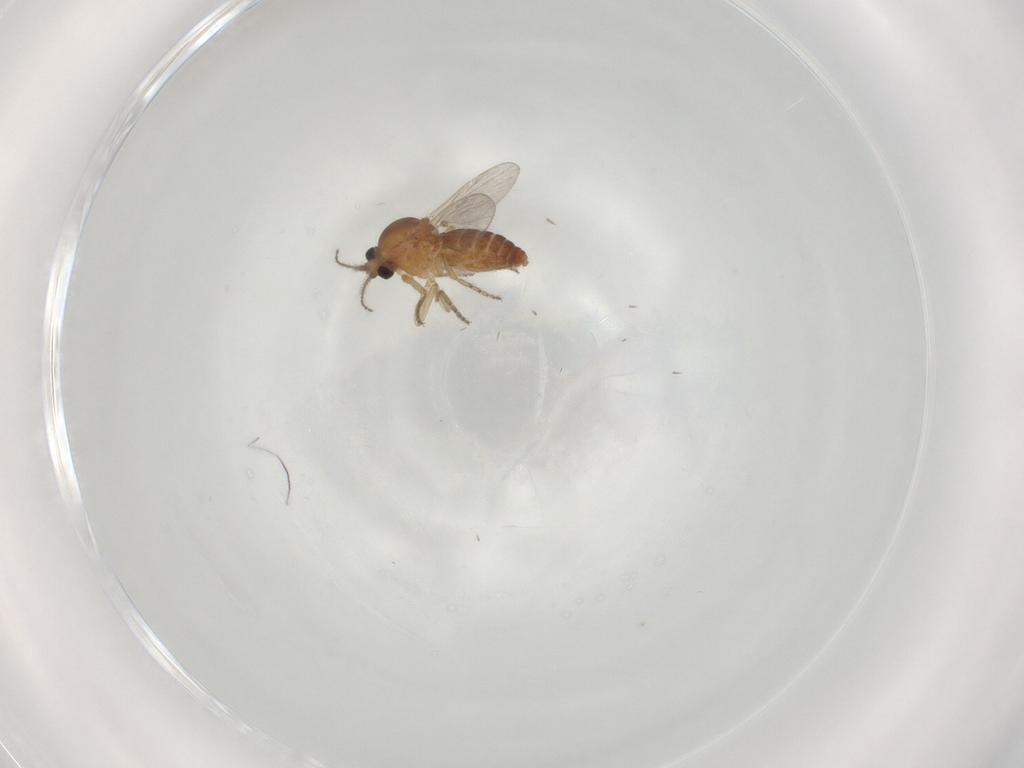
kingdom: Animalia
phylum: Arthropoda
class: Insecta
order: Diptera
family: Ceratopogonidae
